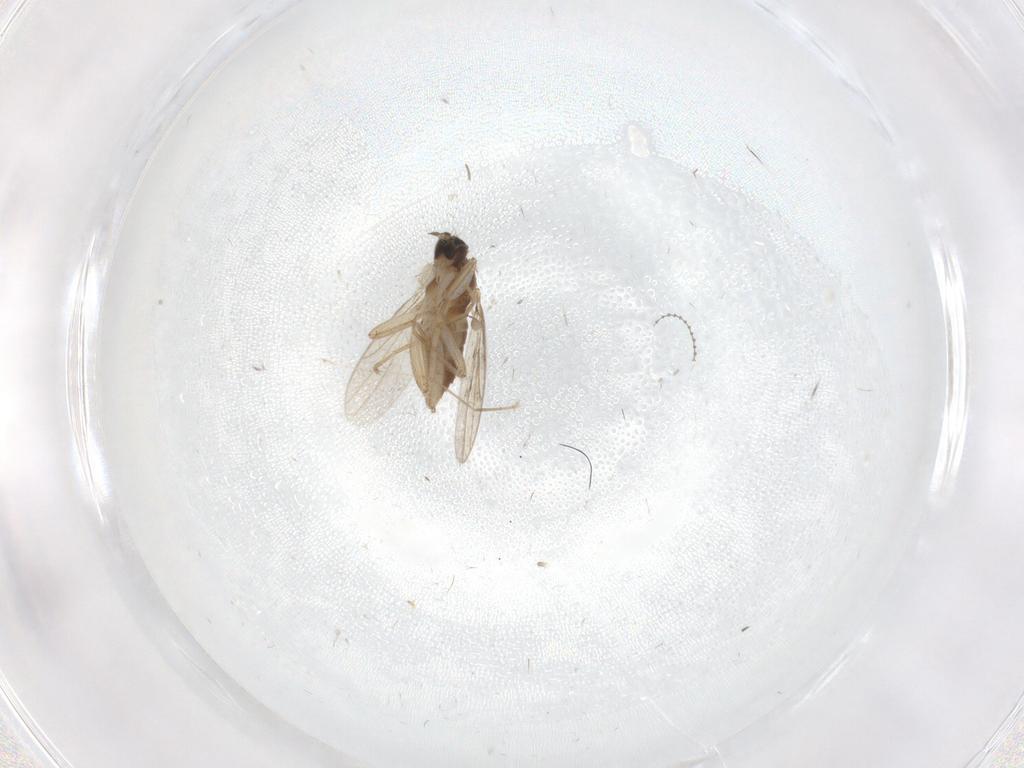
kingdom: Animalia
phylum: Arthropoda
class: Insecta
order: Diptera
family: Hybotidae
